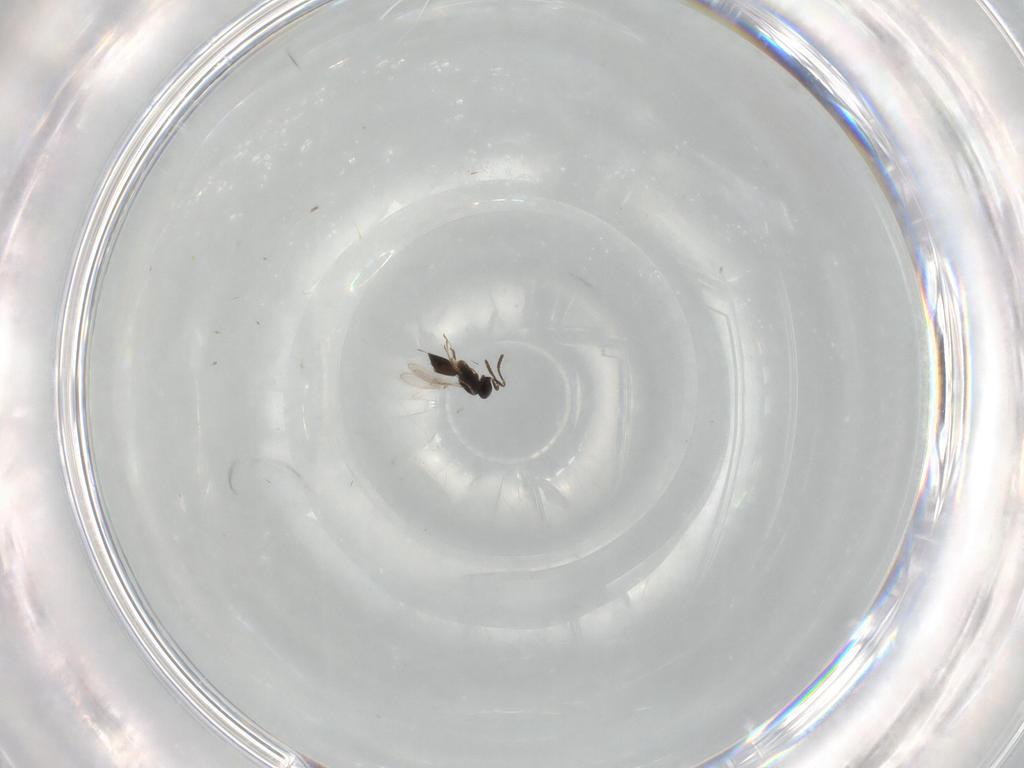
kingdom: Animalia
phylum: Arthropoda
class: Insecta
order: Hymenoptera
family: Scelionidae
